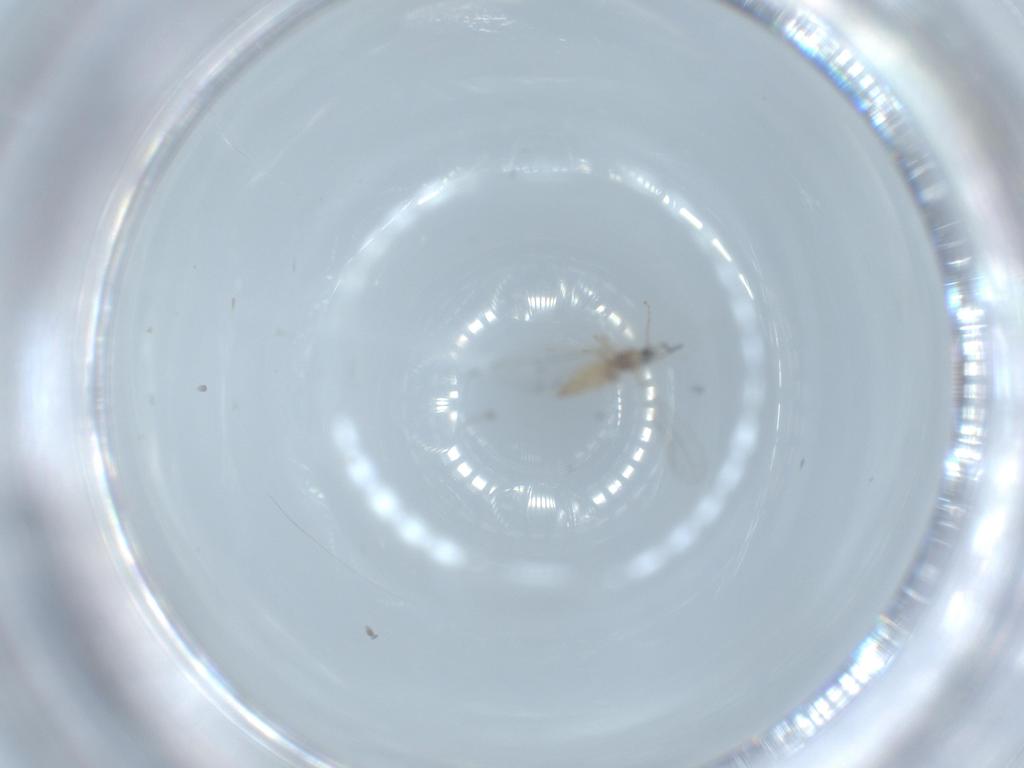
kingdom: Animalia
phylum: Arthropoda
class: Insecta
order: Diptera
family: Cecidomyiidae
